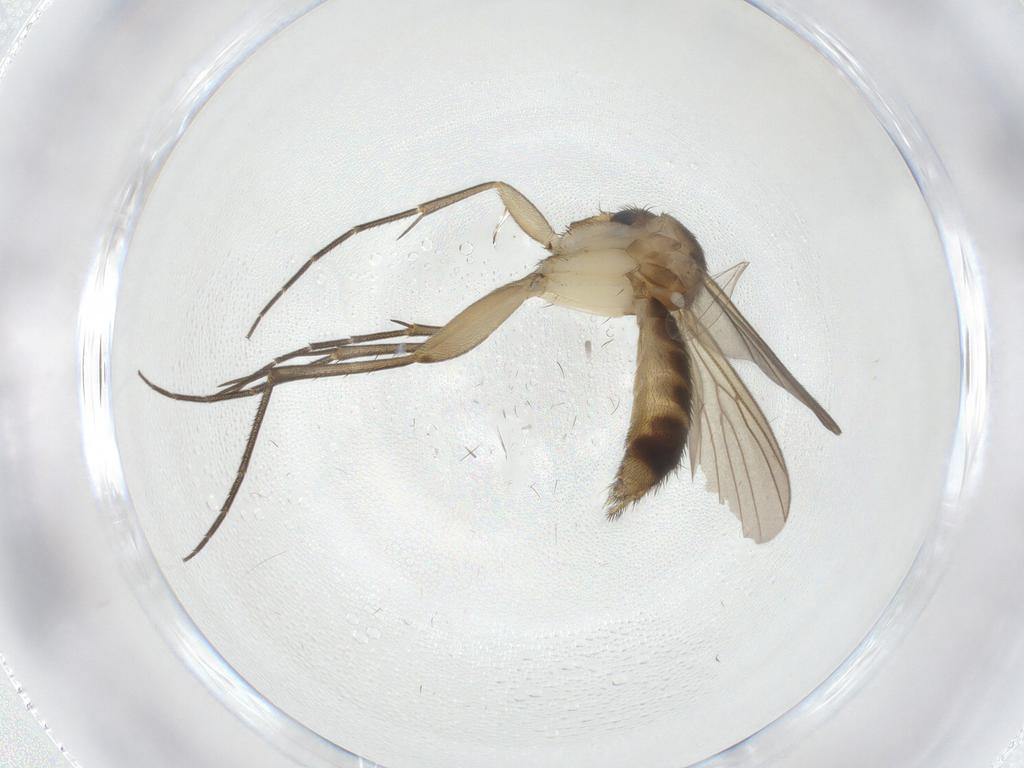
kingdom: Animalia
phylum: Arthropoda
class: Insecta
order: Diptera
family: Mycetophilidae
